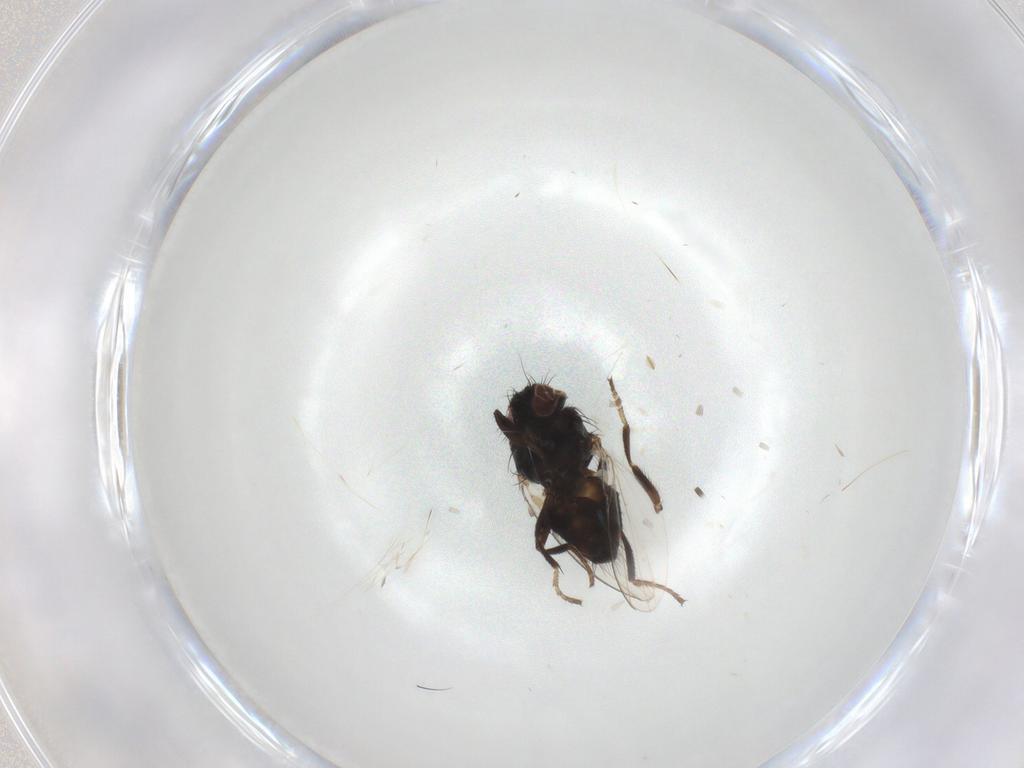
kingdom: Animalia
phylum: Arthropoda
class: Insecta
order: Diptera
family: Milichiidae
